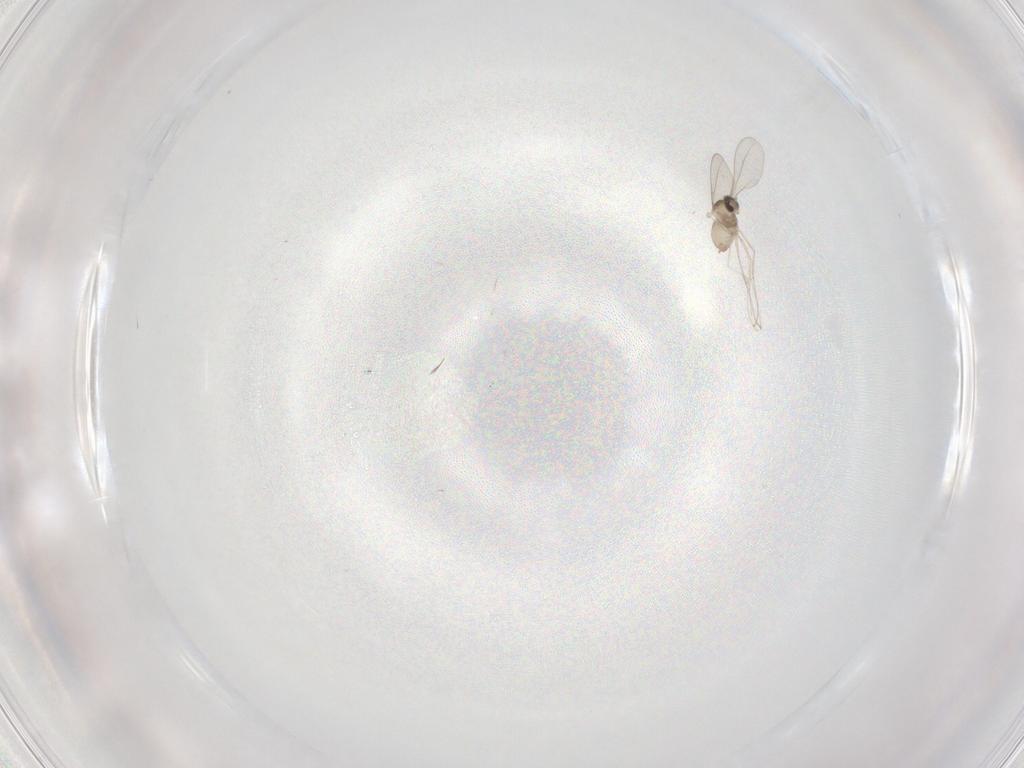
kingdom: Animalia
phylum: Arthropoda
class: Insecta
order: Diptera
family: Cecidomyiidae
